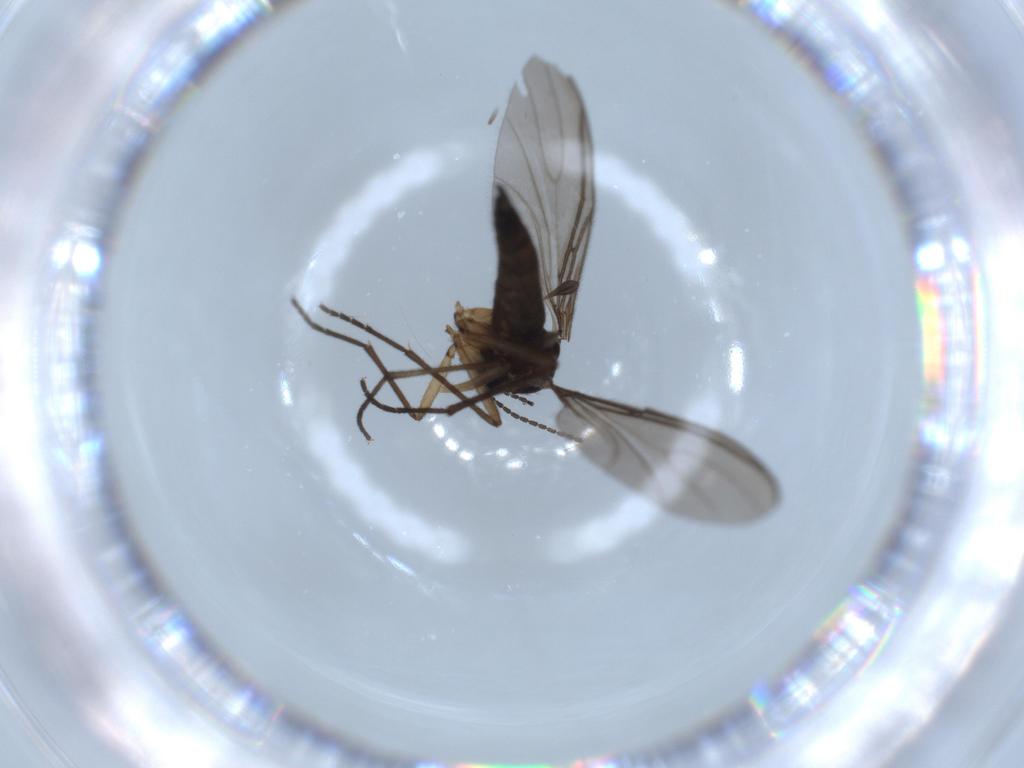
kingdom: Animalia
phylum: Arthropoda
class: Insecta
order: Diptera
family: Sciaridae
